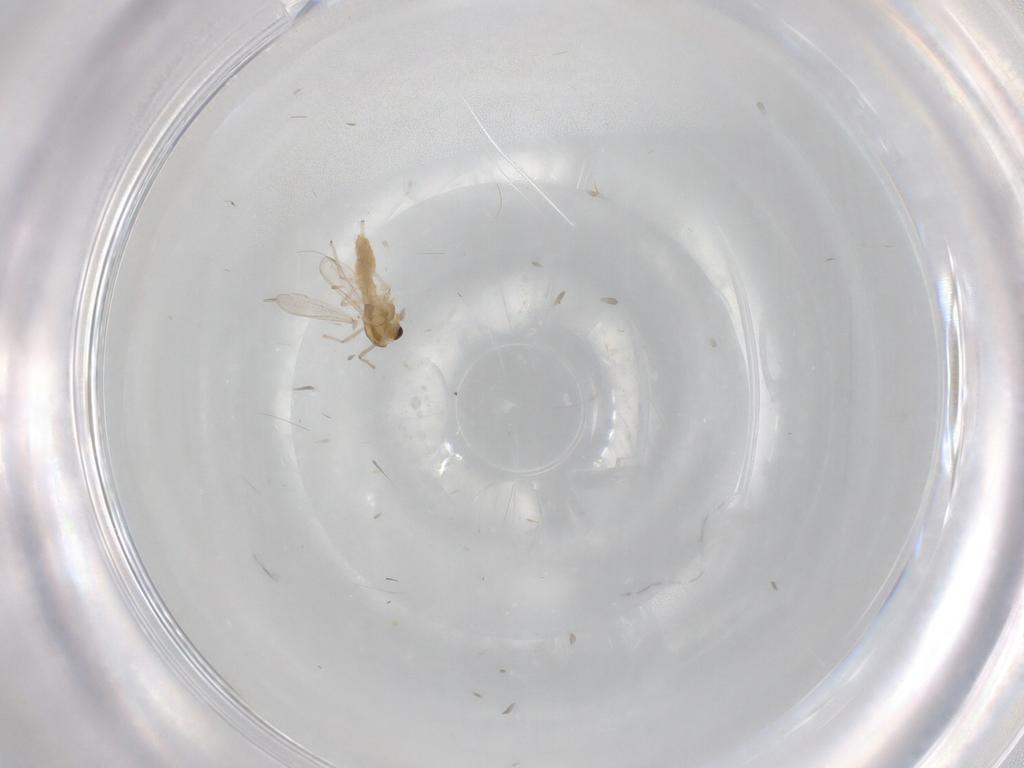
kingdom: Animalia
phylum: Arthropoda
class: Insecta
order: Diptera
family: Chironomidae
